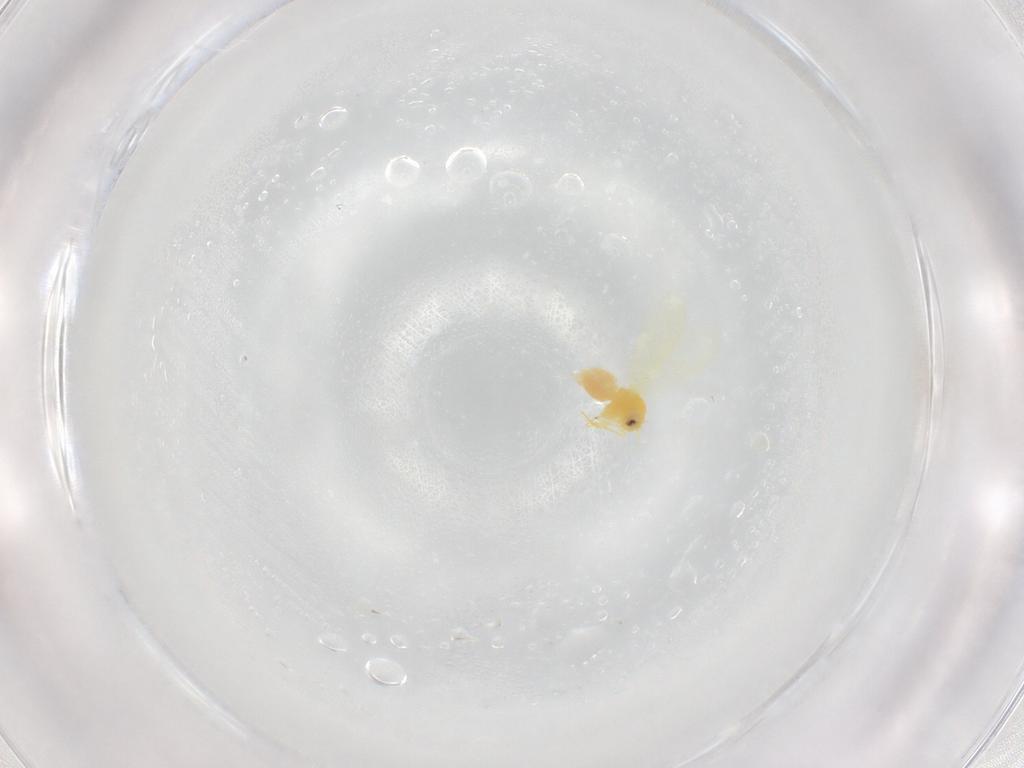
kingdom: Animalia
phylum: Arthropoda
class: Insecta
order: Hemiptera
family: Aleyrodidae
